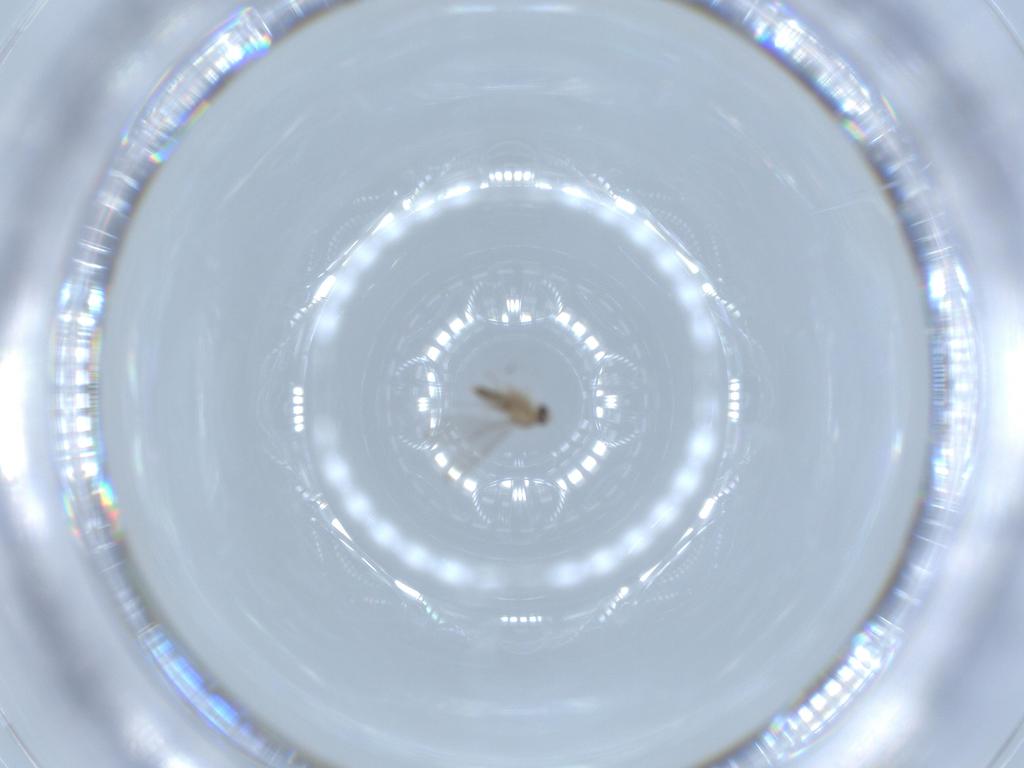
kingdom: Animalia
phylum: Arthropoda
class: Insecta
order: Diptera
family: Cecidomyiidae
